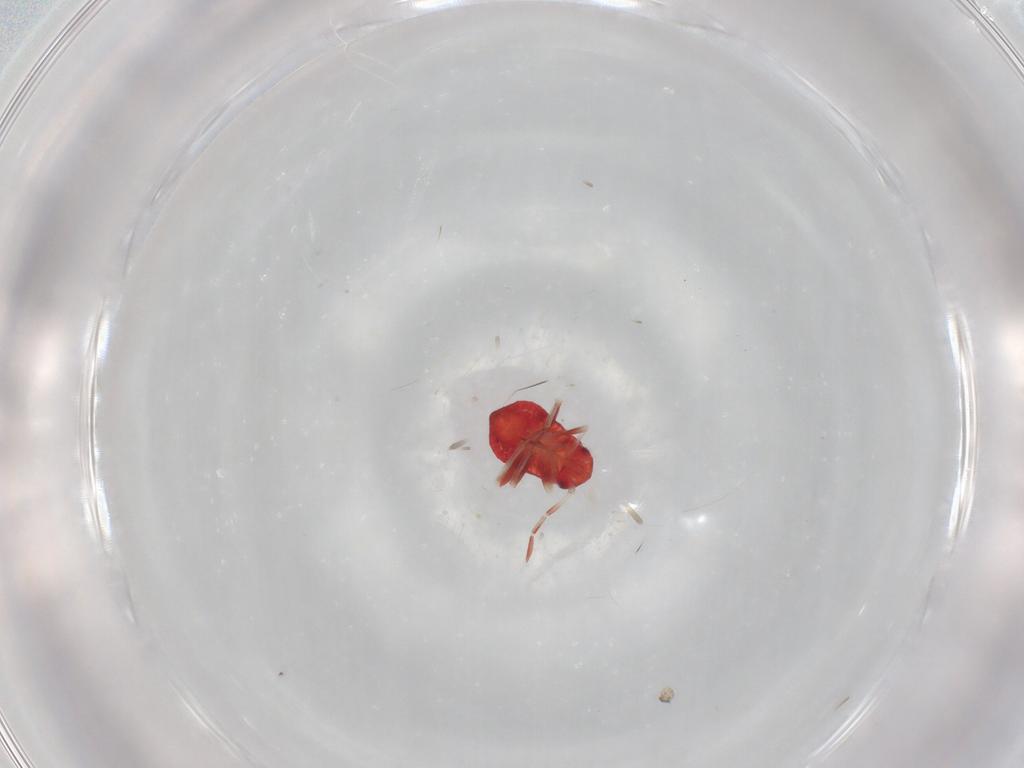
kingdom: Animalia
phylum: Arthropoda
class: Insecta
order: Hemiptera
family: Miridae
